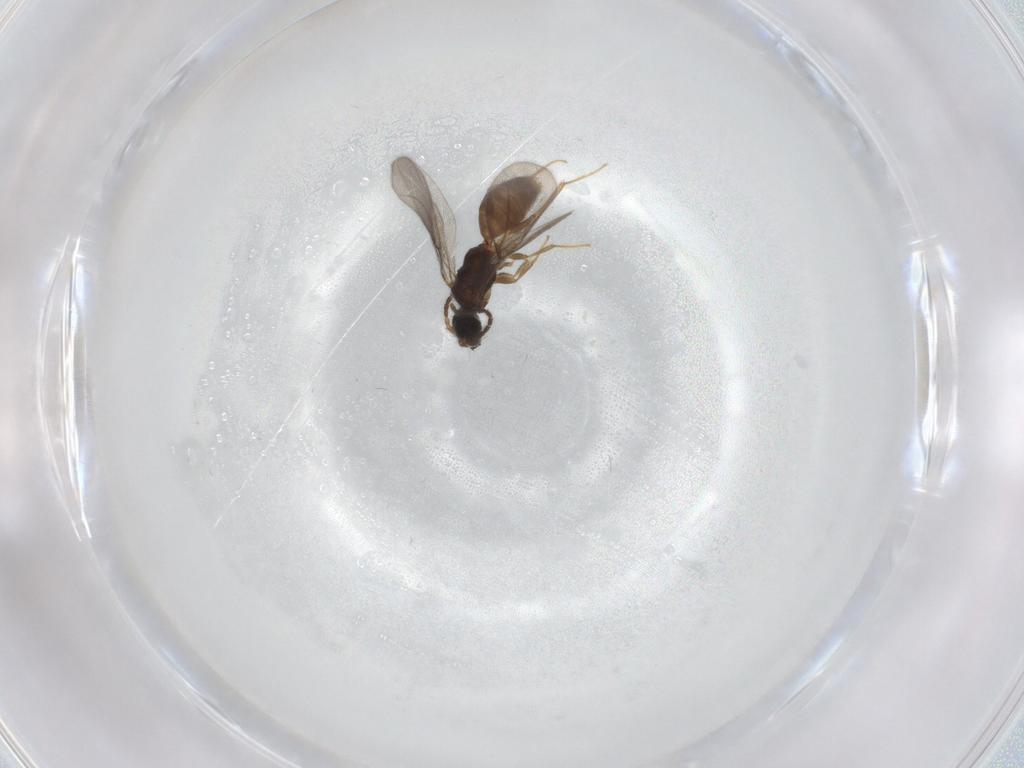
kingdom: Animalia
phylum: Arthropoda
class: Insecta
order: Hymenoptera
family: Bethylidae
